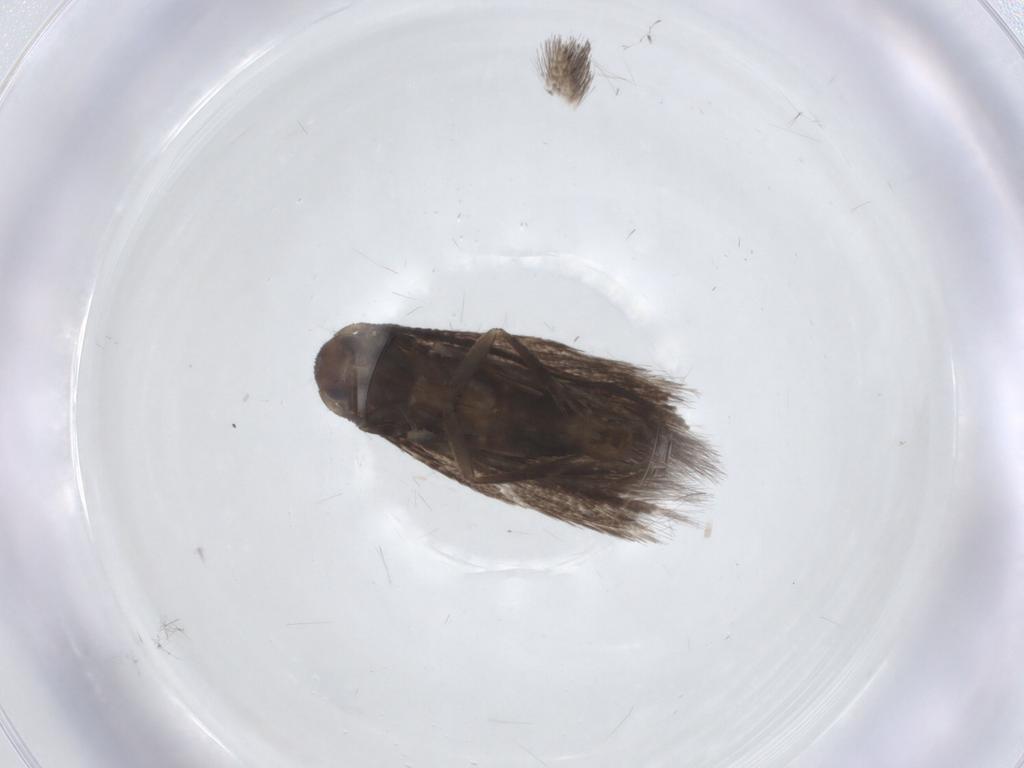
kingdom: Animalia
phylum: Arthropoda
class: Insecta
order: Lepidoptera
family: Elachistidae
